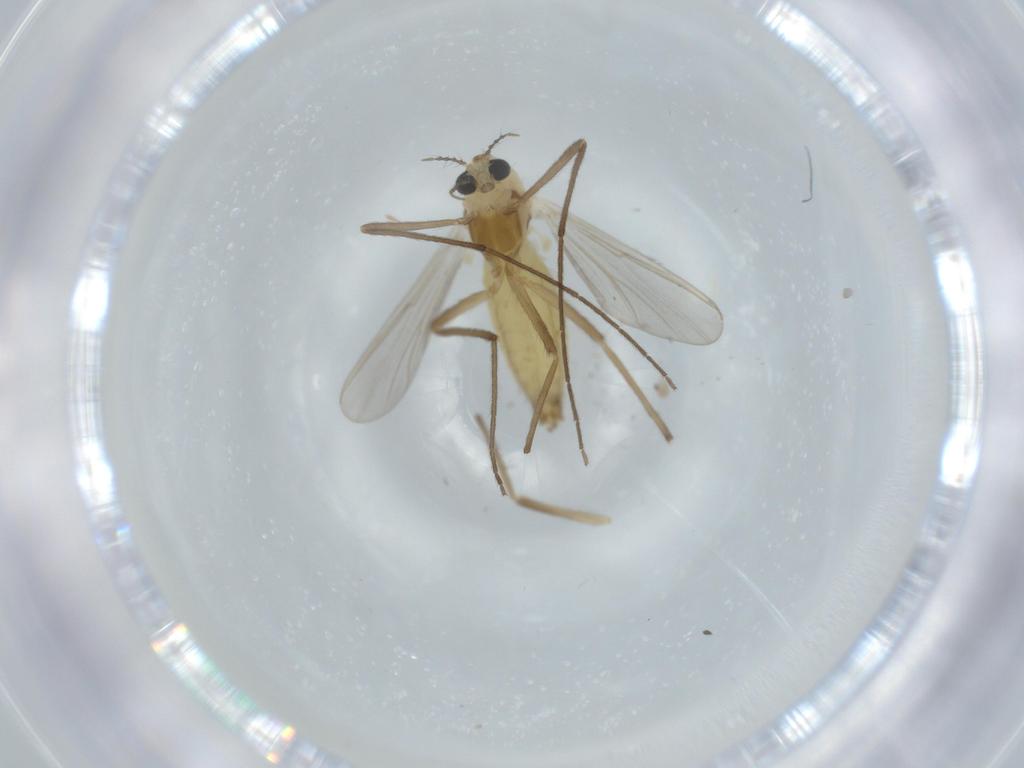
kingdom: Animalia
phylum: Arthropoda
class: Insecta
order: Diptera
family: Chironomidae
